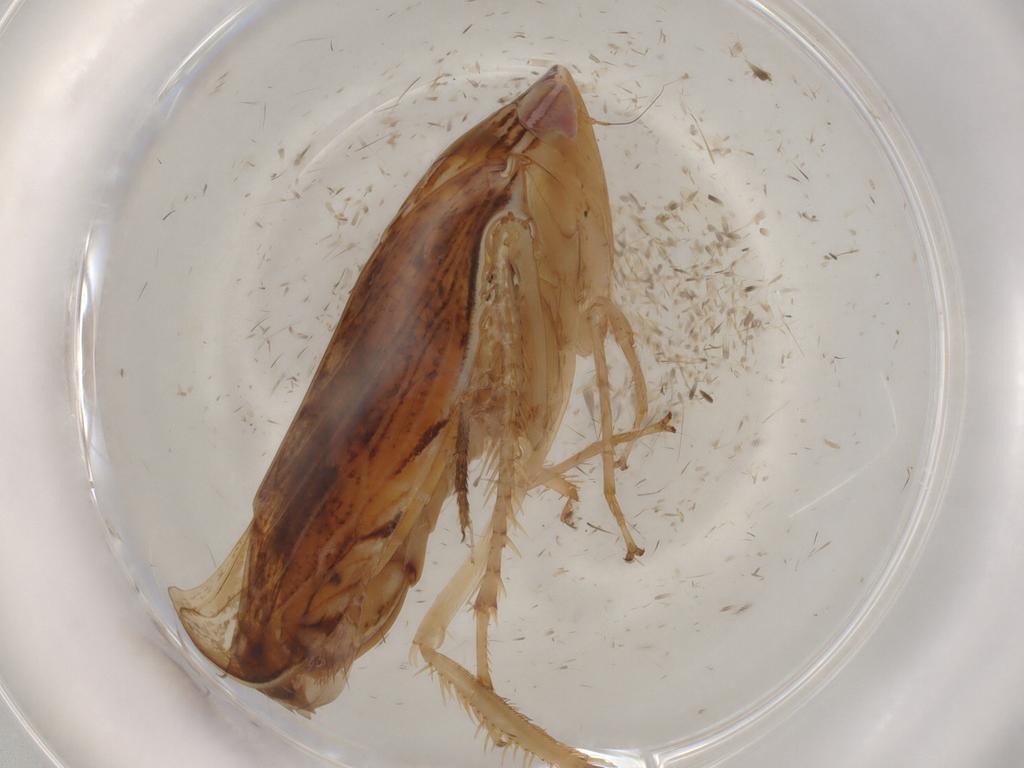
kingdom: Animalia
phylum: Arthropoda
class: Insecta
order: Hemiptera
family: Cicadellidae
